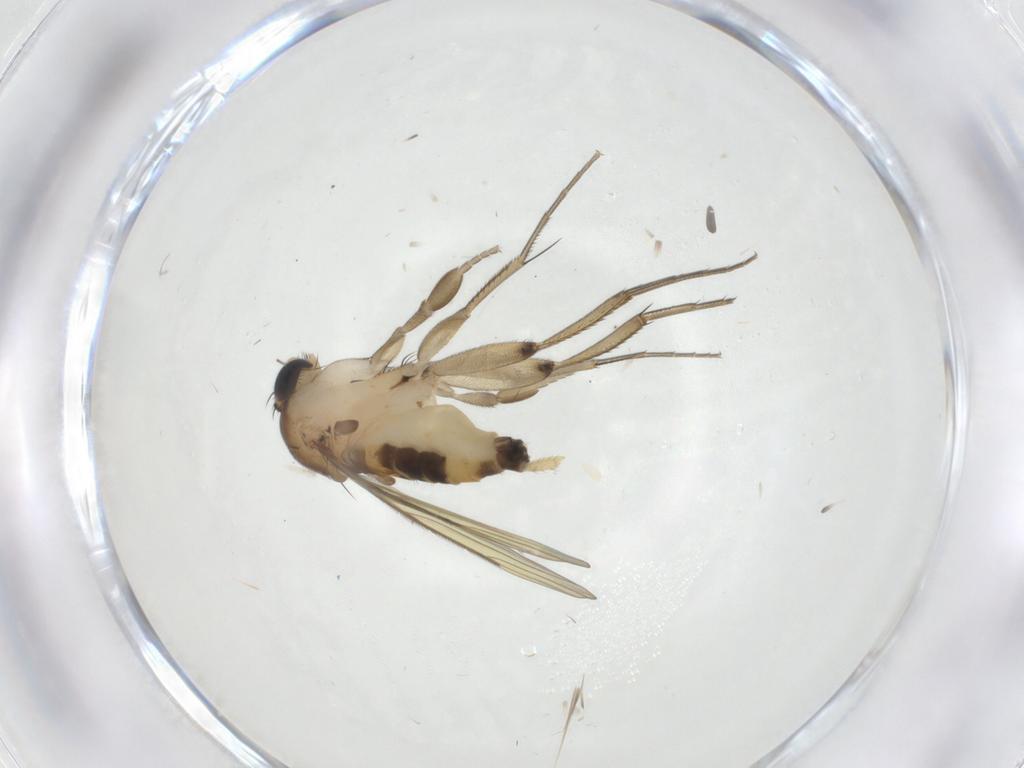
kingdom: Animalia
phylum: Arthropoda
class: Insecta
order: Diptera
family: Phoridae
